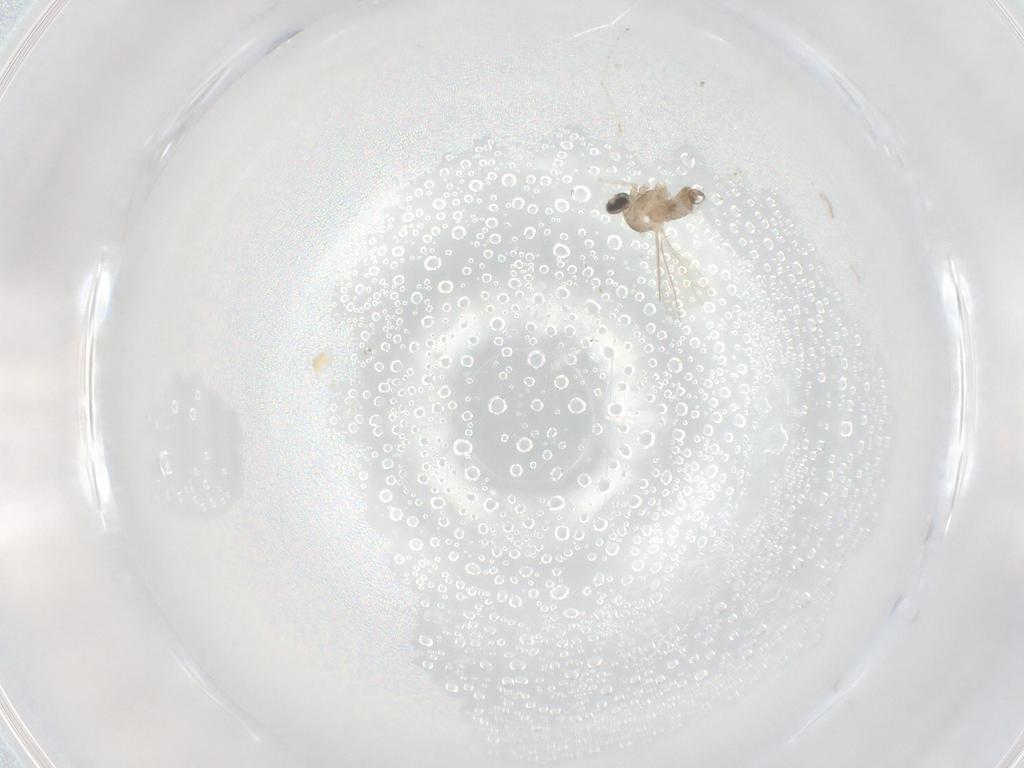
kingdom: Animalia
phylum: Arthropoda
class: Insecta
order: Diptera
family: Cecidomyiidae
